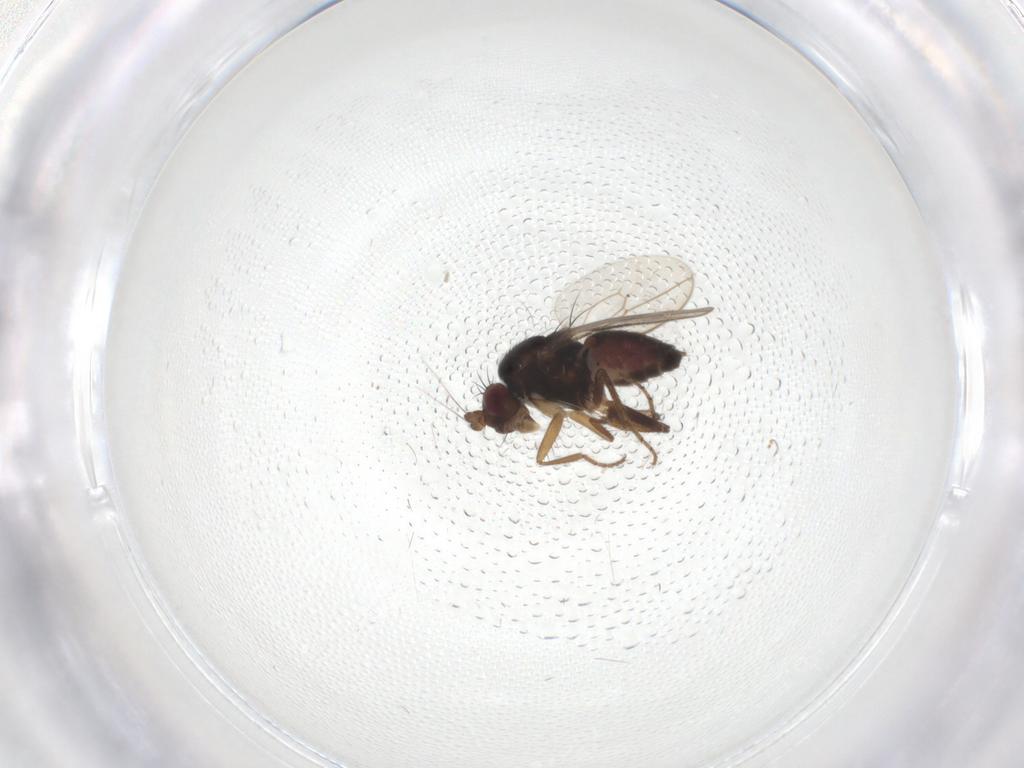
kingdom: Animalia
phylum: Arthropoda
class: Insecta
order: Diptera
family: Sphaeroceridae
